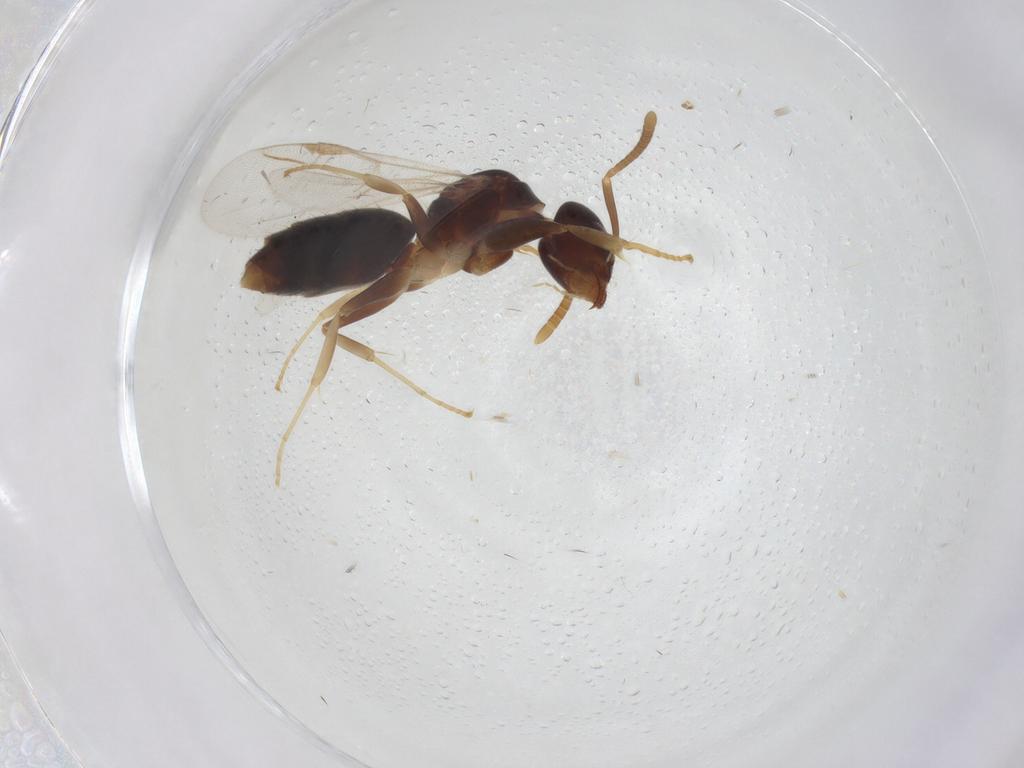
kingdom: Animalia
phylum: Arthropoda
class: Insecta
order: Hymenoptera
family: Formicidae
